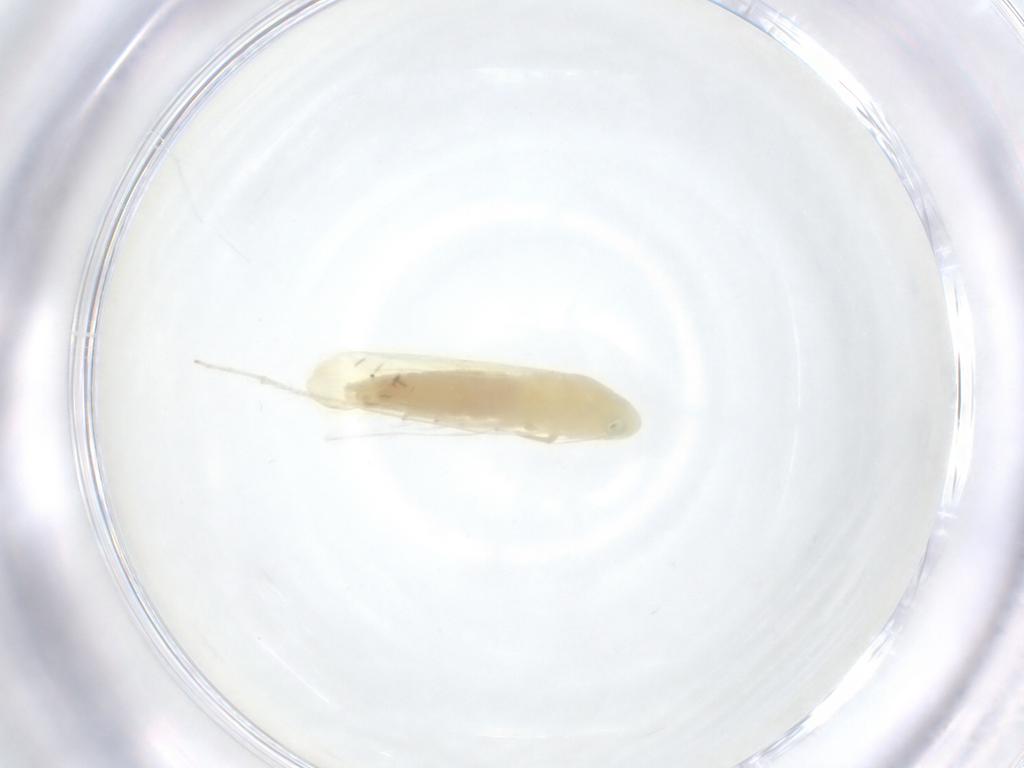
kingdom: Animalia
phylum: Arthropoda
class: Insecta
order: Hemiptera
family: Cicadellidae
